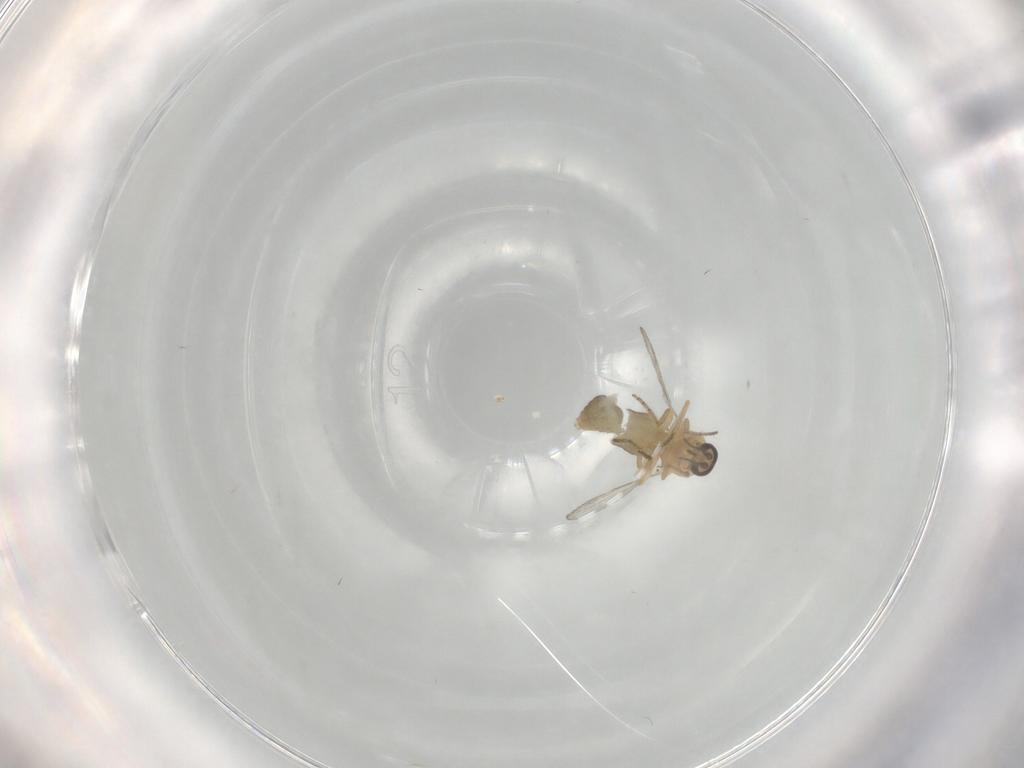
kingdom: Animalia
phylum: Arthropoda
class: Insecta
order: Diptera
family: Ceratopogonidae
